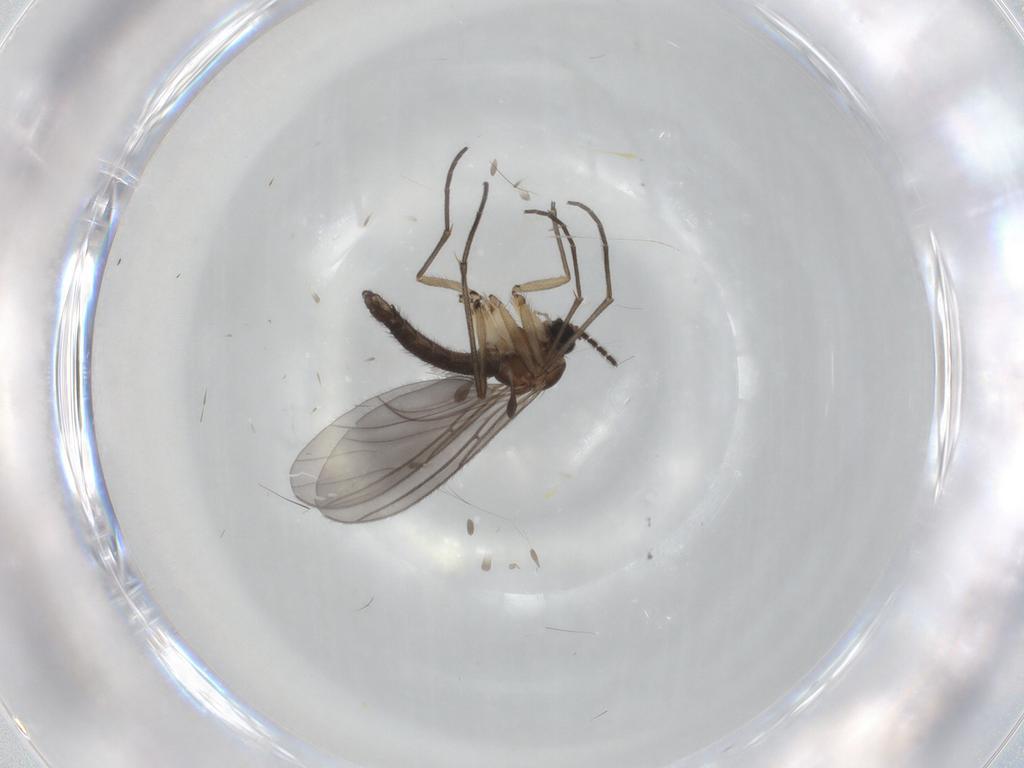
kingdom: Animalia
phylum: Arthropoda
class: Insecta
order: Diptera
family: Sciaridae
